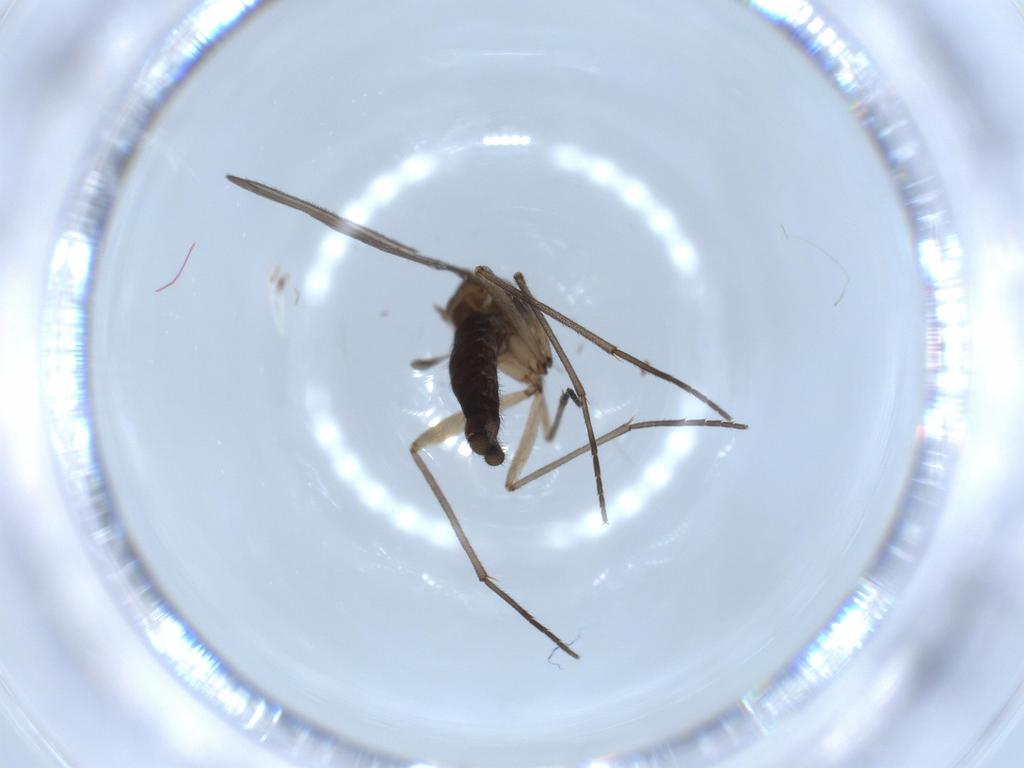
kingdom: Animalia
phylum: Arthropoda
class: Insecta
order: Diptera
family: Sciaridae
